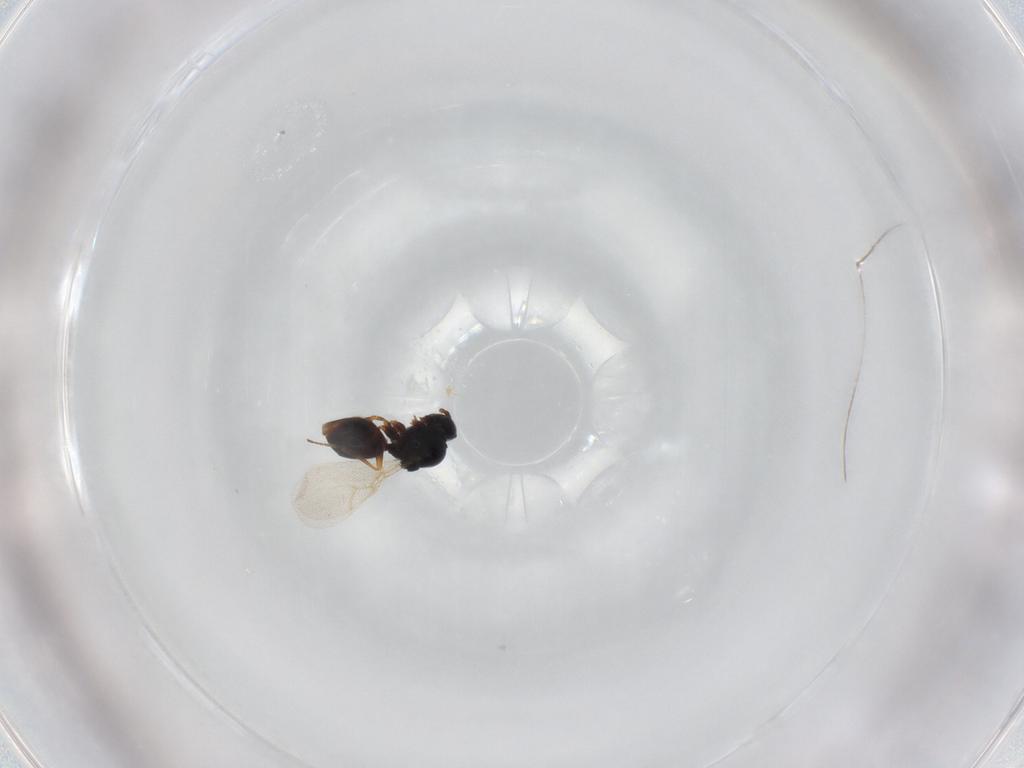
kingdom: Animalia
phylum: Arthropoda
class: Insecta
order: Hymenoptera
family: Figitidae
